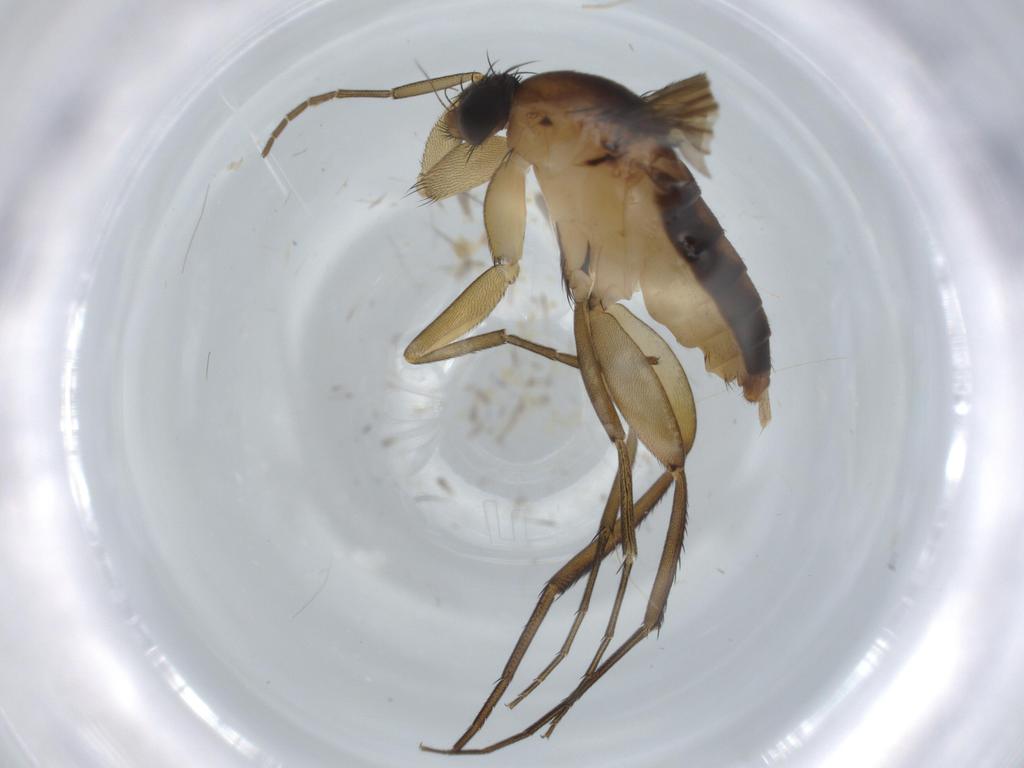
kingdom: Animalia
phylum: Arthropoda
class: Insecta
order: Diptera
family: Phoridae
